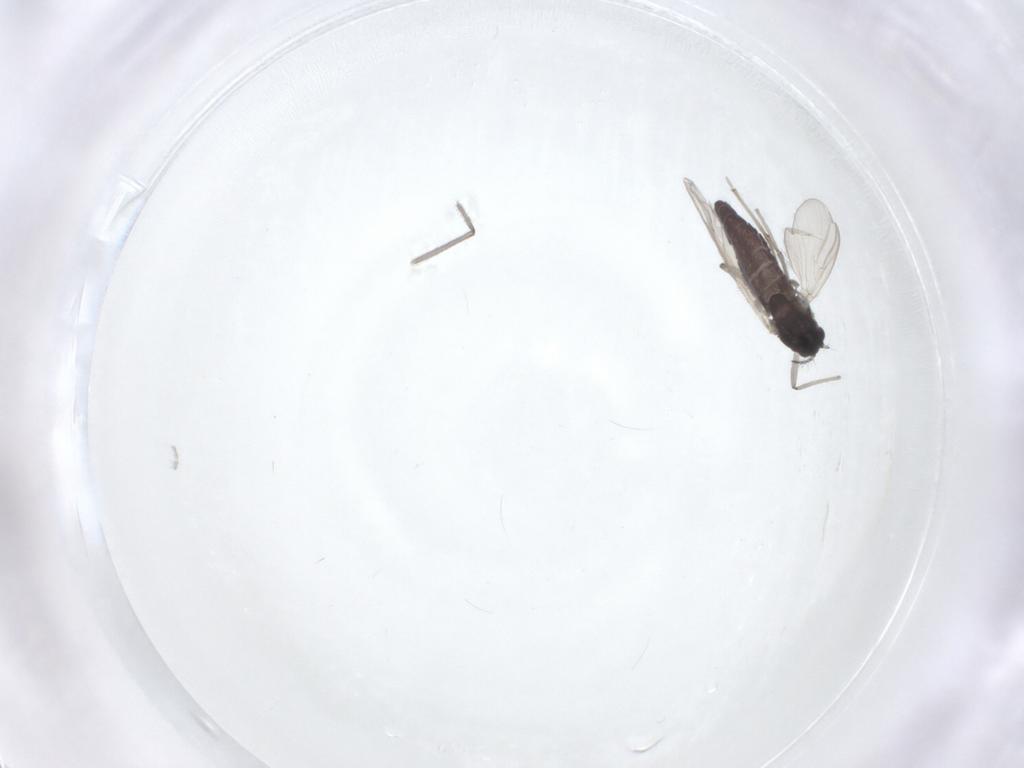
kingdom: Animalia
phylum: Arthropoda
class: Insecta
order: Diptera
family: Chironomidae
